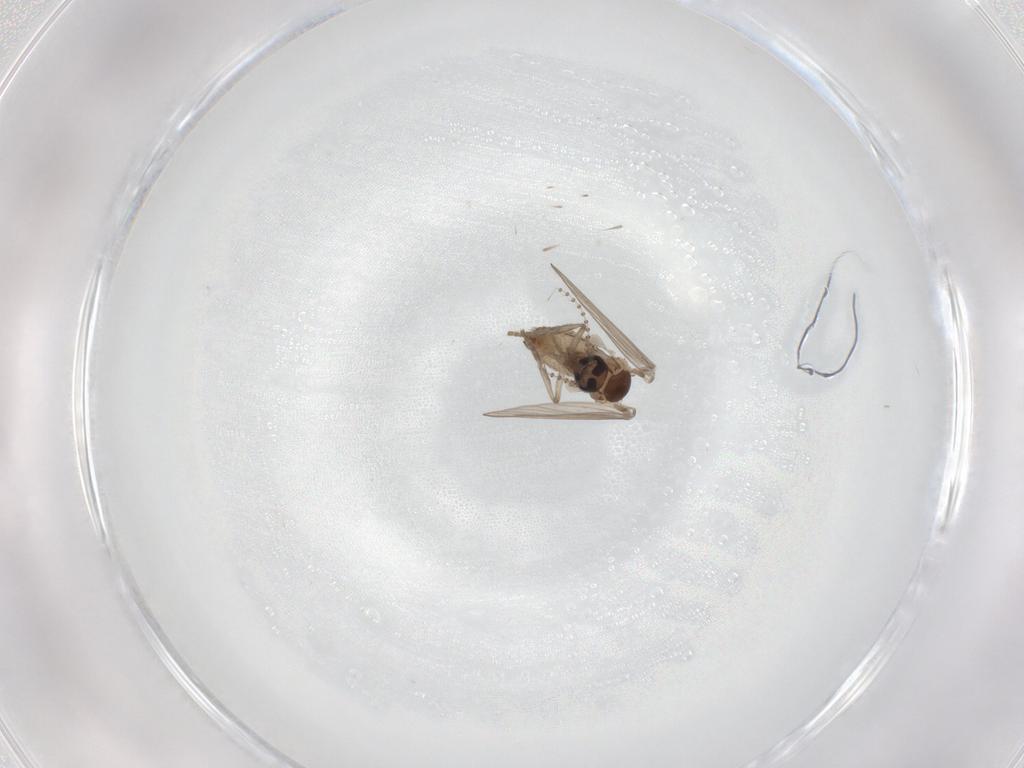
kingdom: Animalia
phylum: Arthropoda
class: Insecta
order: Diptera
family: Psychodidae
